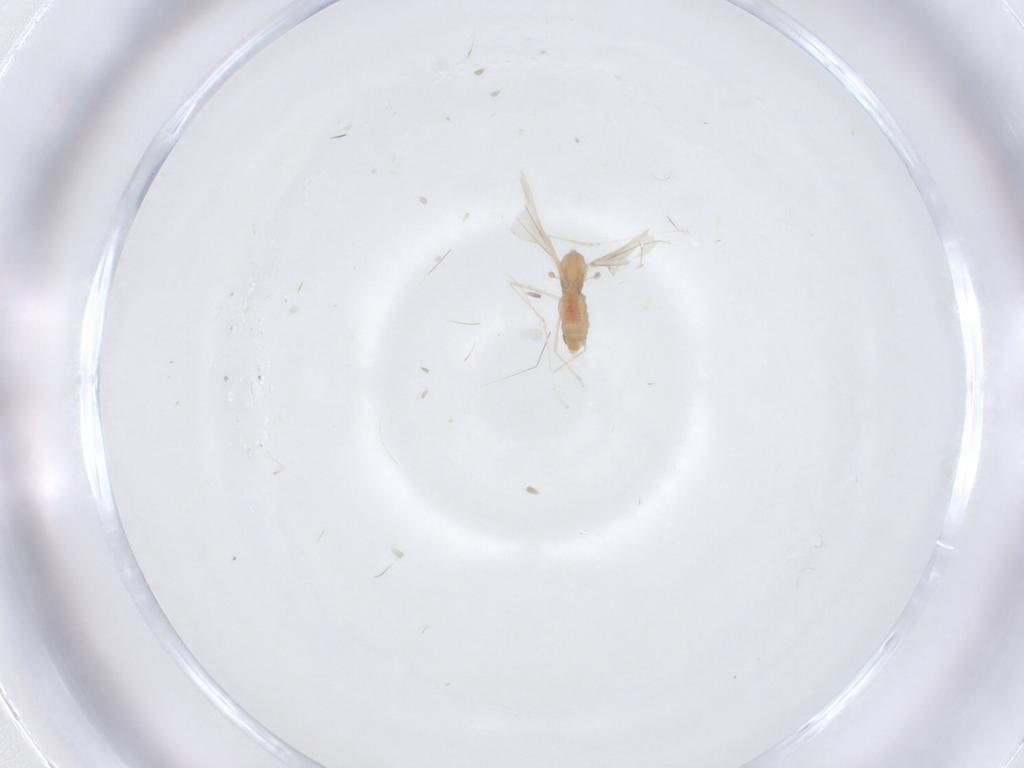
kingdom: Animalia
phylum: Arthropoda
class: Insecta
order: Diptera
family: Cecidomyiidae
